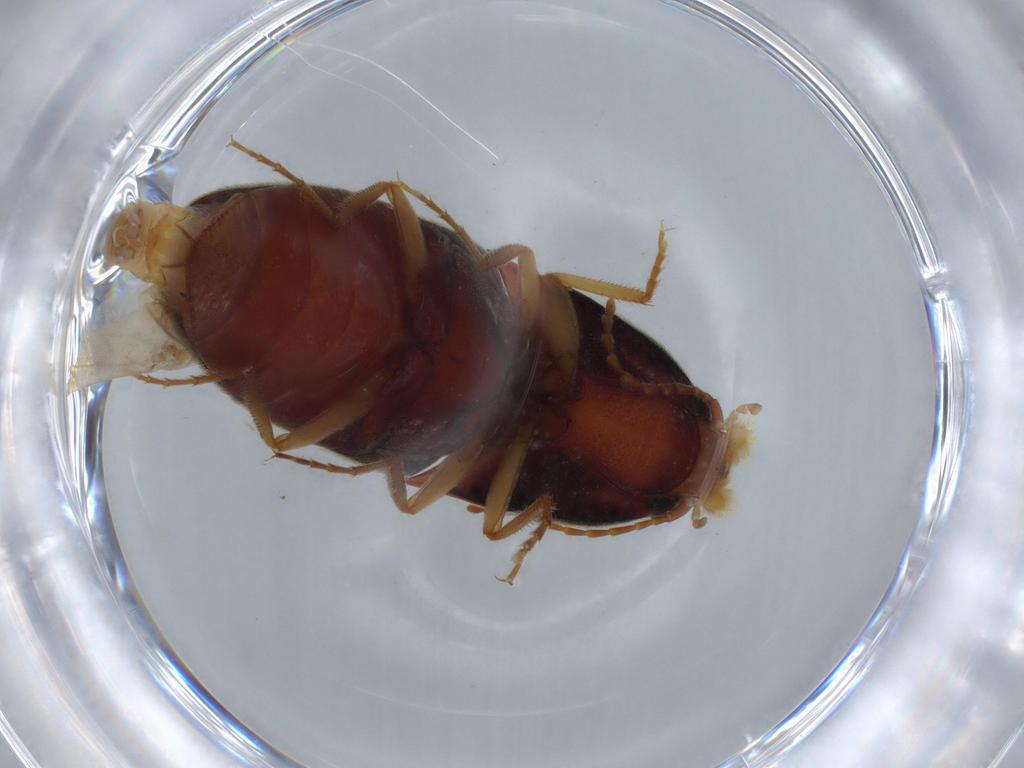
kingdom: Animalia
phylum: Arthropoda
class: Insecta
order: Coleoptera
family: Elateridae
